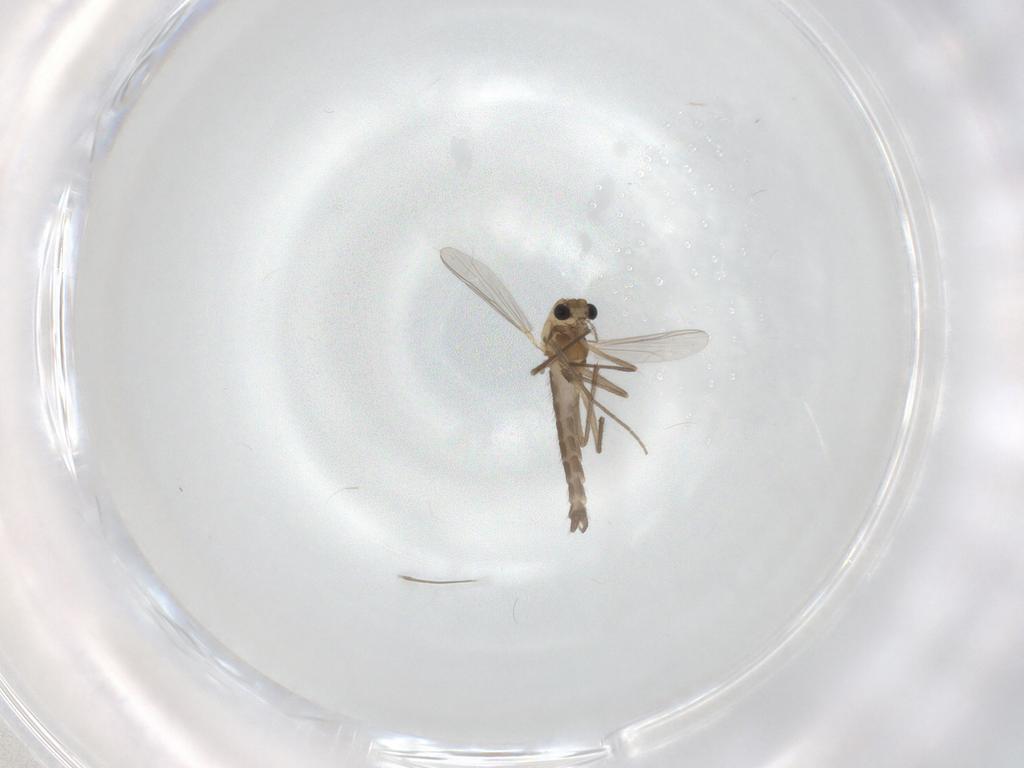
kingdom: Animalia
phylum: Arthropoda
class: Insecta
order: Diptera
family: Chironomidae
